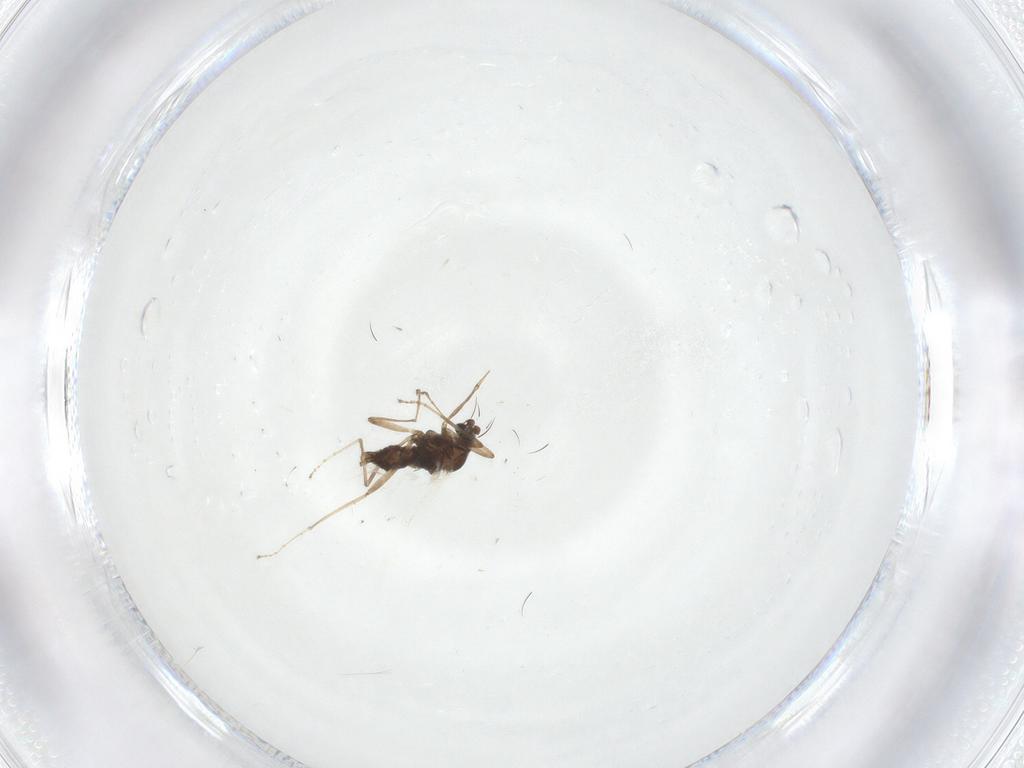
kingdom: Animalia
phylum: Arthropoda
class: Insecta
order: Diptera
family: Cecidomyiidae
